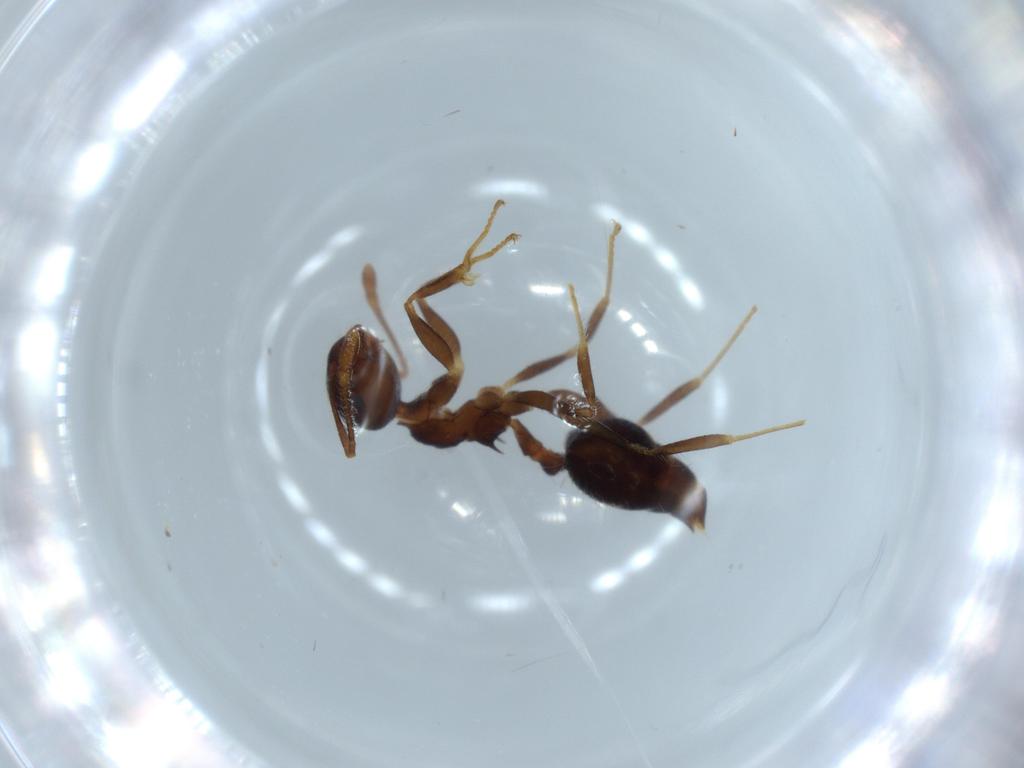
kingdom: Animalia
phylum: Arthropoda
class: Insecta
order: Hymenoptera
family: Formicidae
